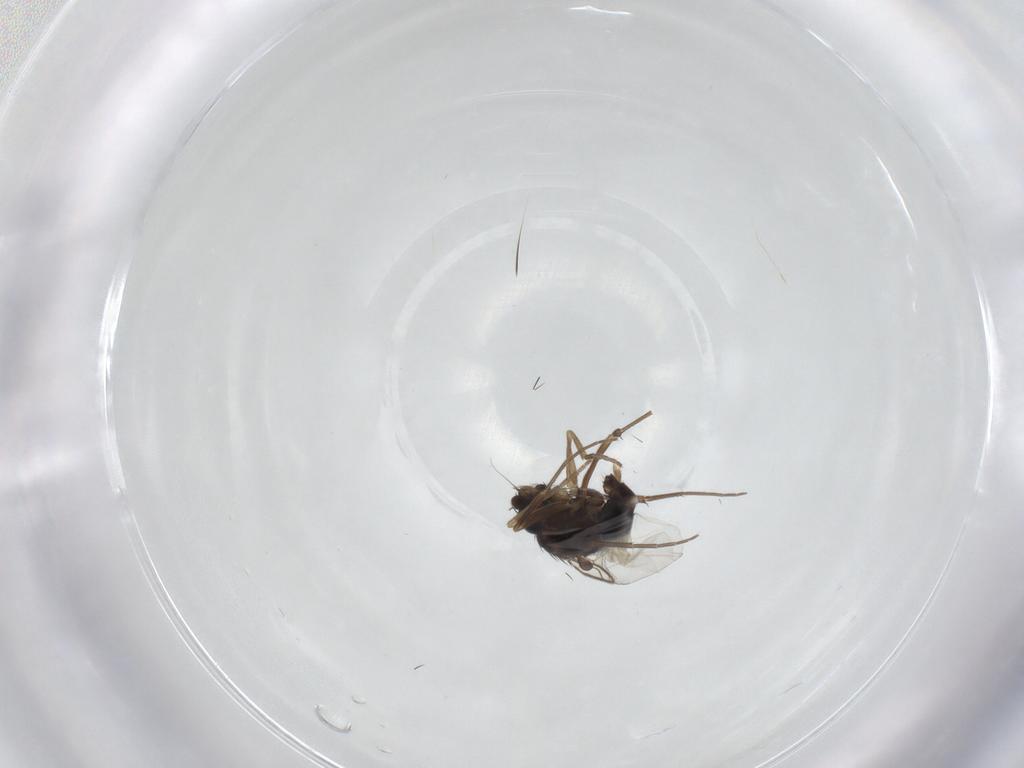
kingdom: Animalia
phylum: Arthropoda
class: Insecta
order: Diptera
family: Phoridae
